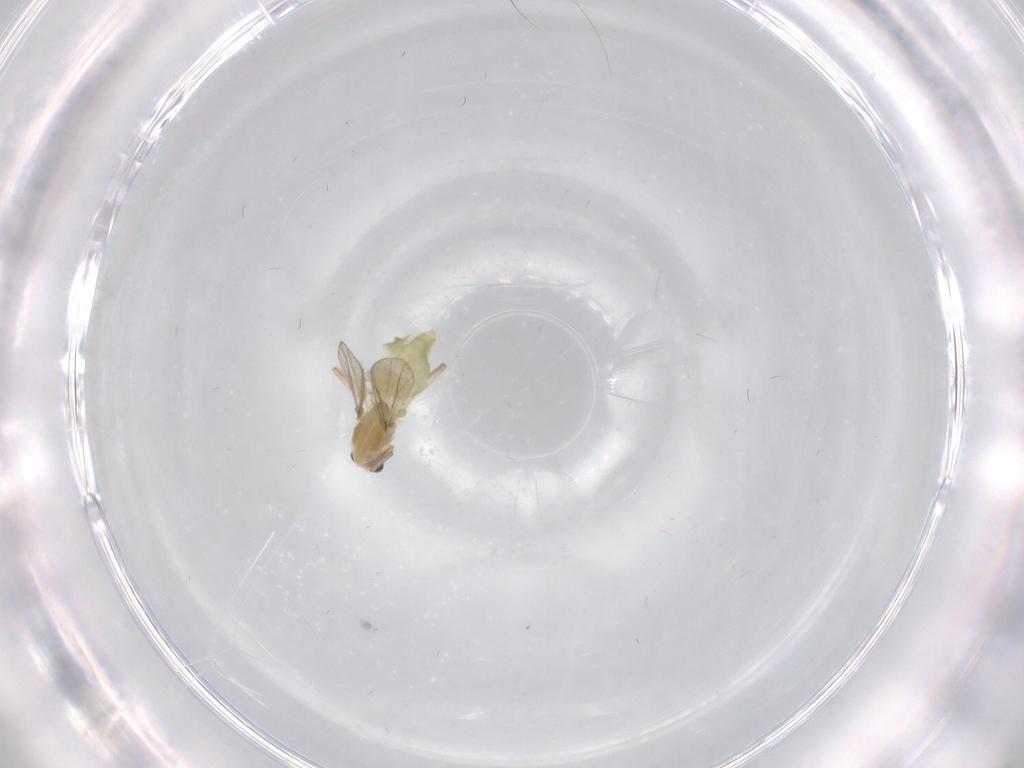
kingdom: Animalia
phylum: Arthropoda
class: Insecta
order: Diptera
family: Chironomidae
